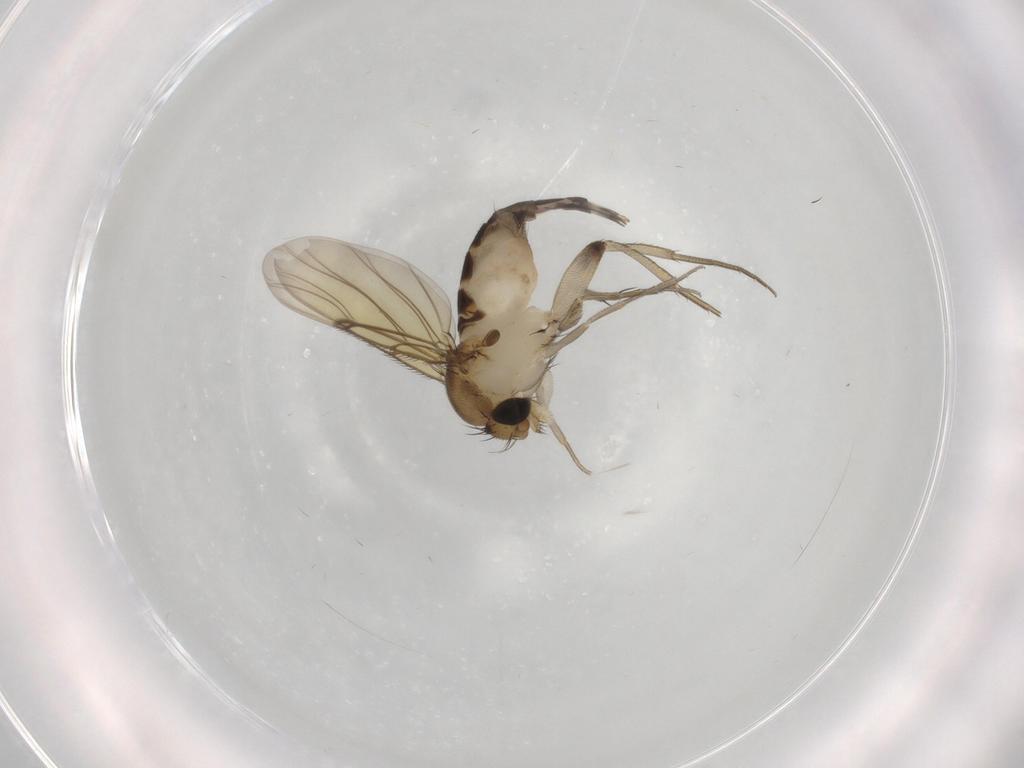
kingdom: Animalia
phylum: Arthropoda
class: Insecta
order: Diptera
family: Phoridae
